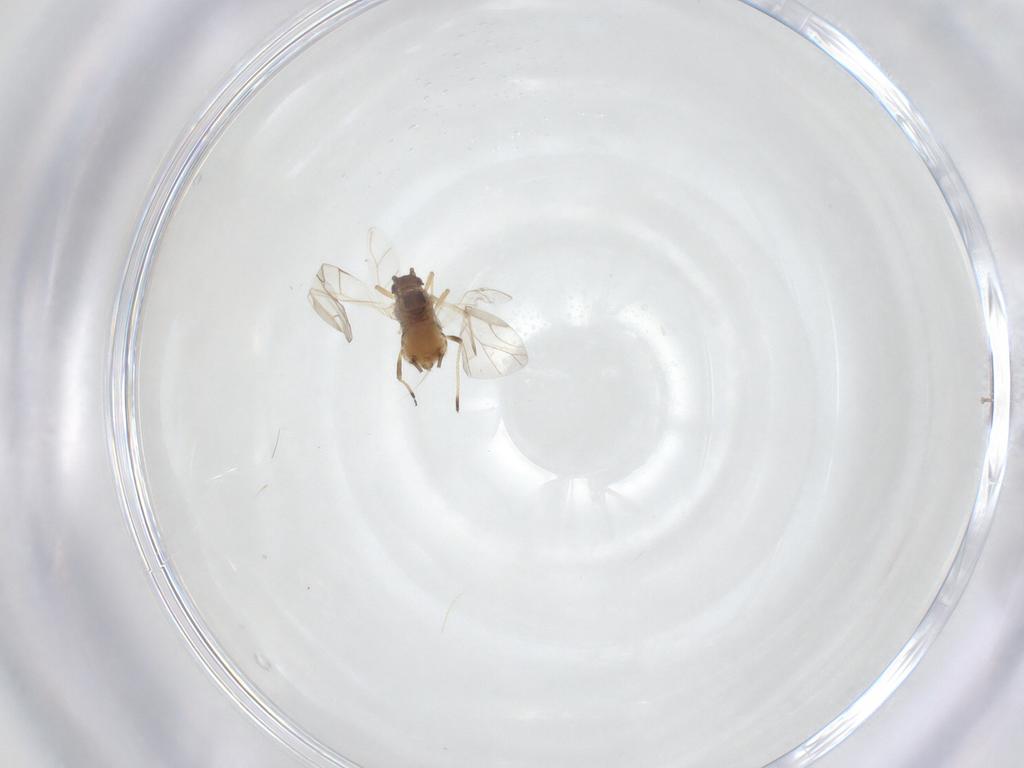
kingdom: Animalia
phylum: Arthropoda
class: Insecta
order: Hemiptera
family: Aphididae
